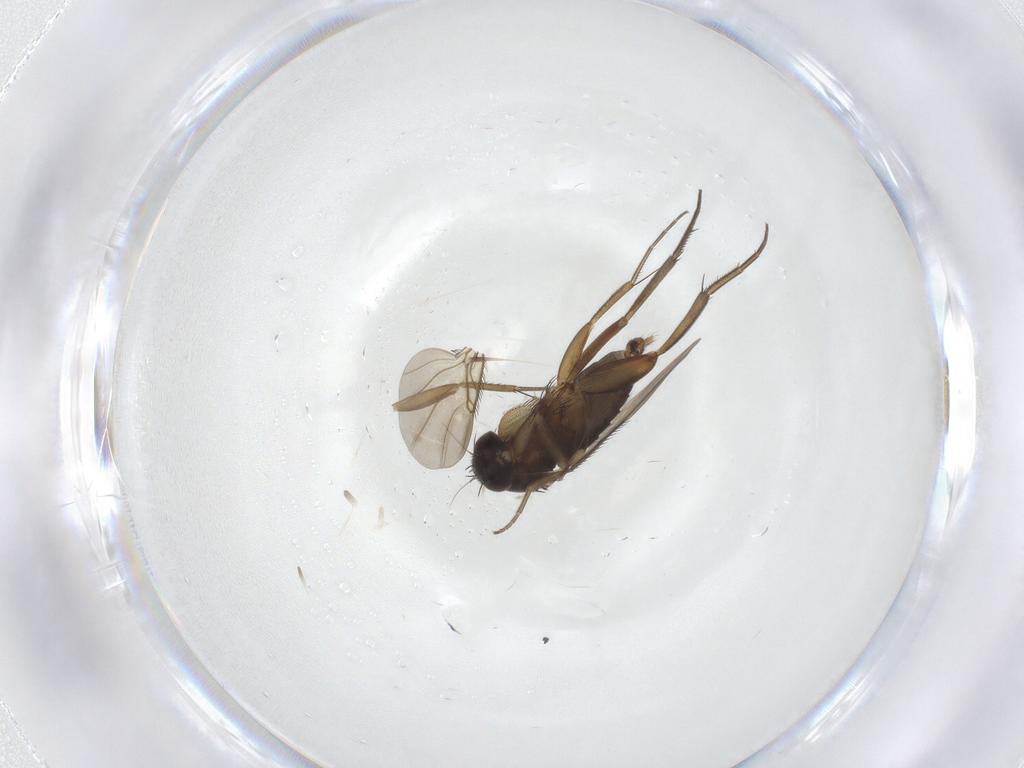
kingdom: Animalia
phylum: Arthropoda
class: Insecta
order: Diptera
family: Phoridae
